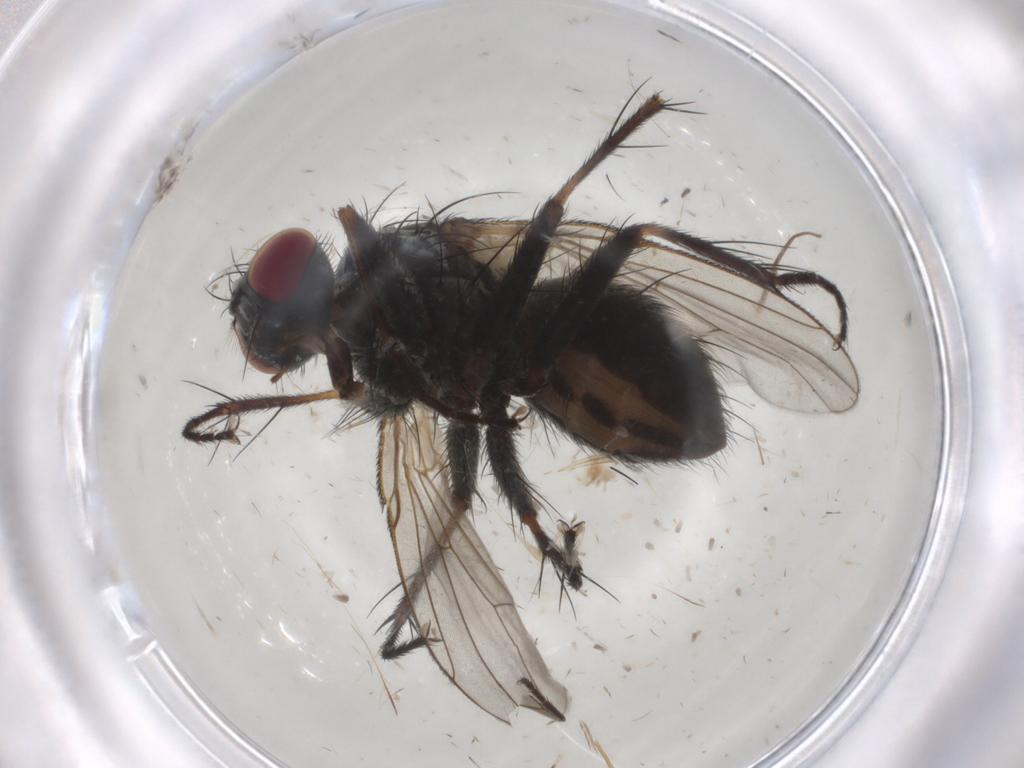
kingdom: Animalia
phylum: Arthropoda
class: Insecta
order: Diptera
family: Muscidae
